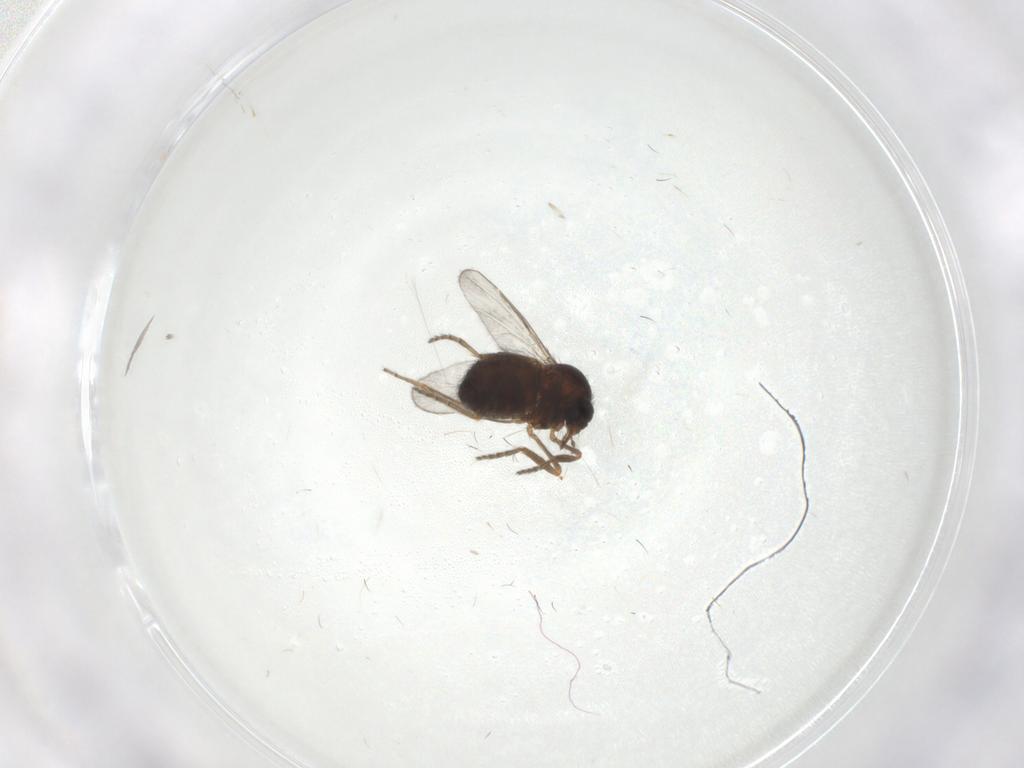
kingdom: Animalia
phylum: Arthropoda
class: Insecta
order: Diptera
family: Ceratopogonidae
